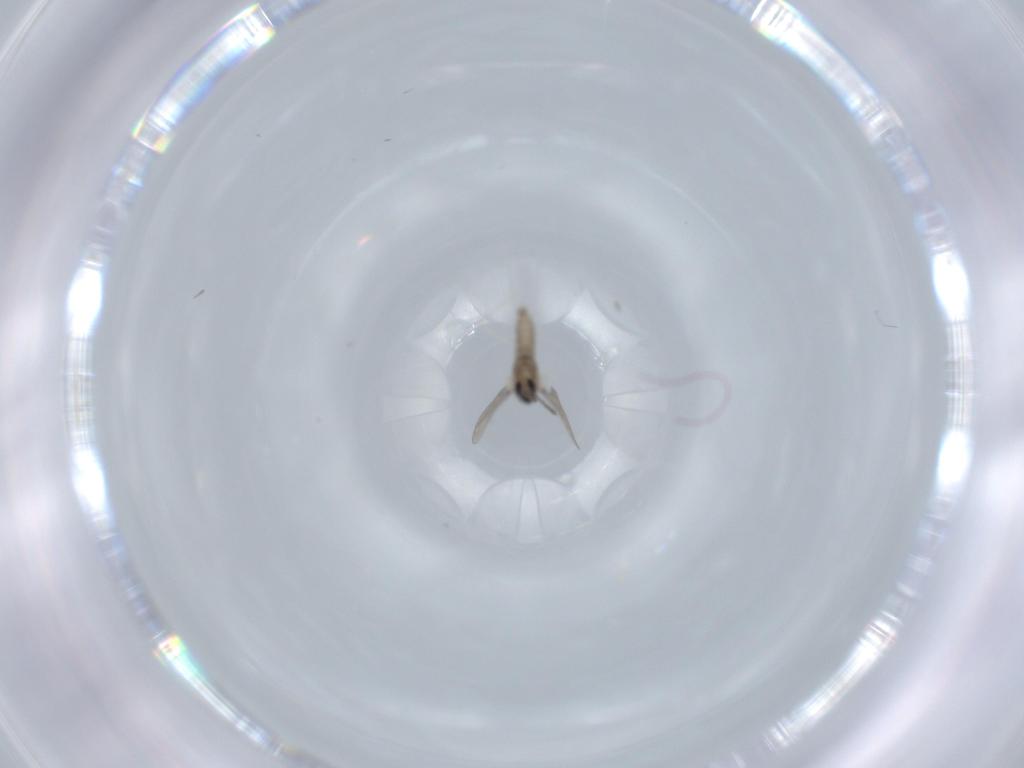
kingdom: Animalia
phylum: Arthropoda
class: Insecta
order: Diptera
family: Cecidomyiidae
